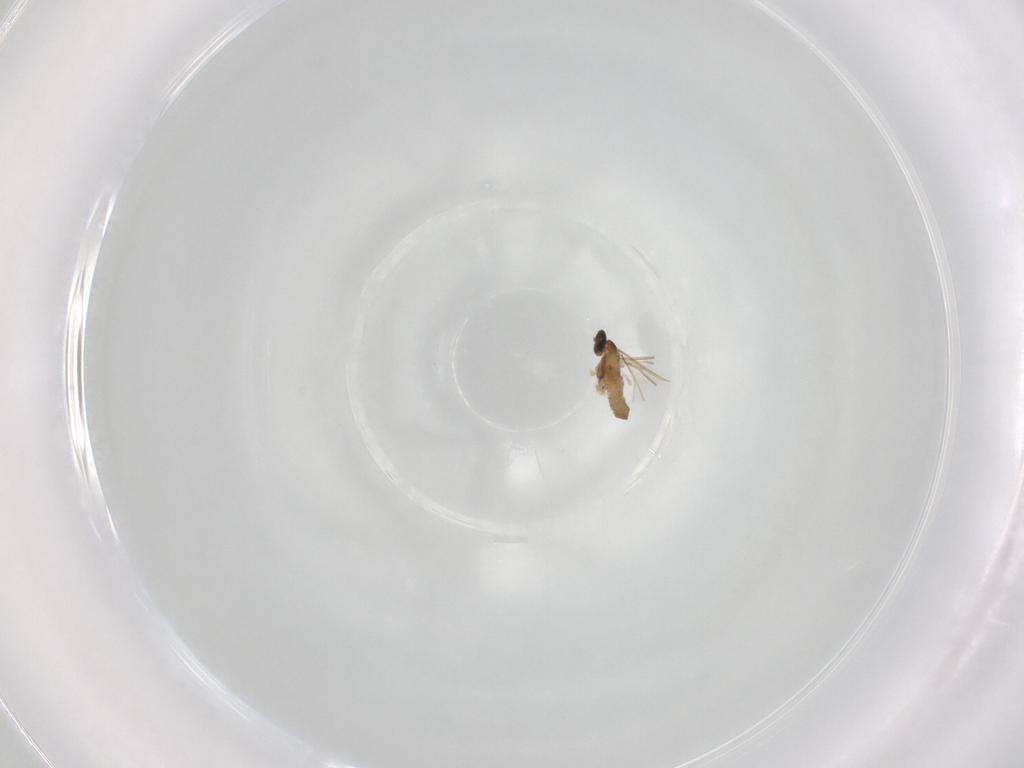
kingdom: Animalia
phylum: Arthropoda
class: Insecta
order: Diptera
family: Cecidomyiidae
